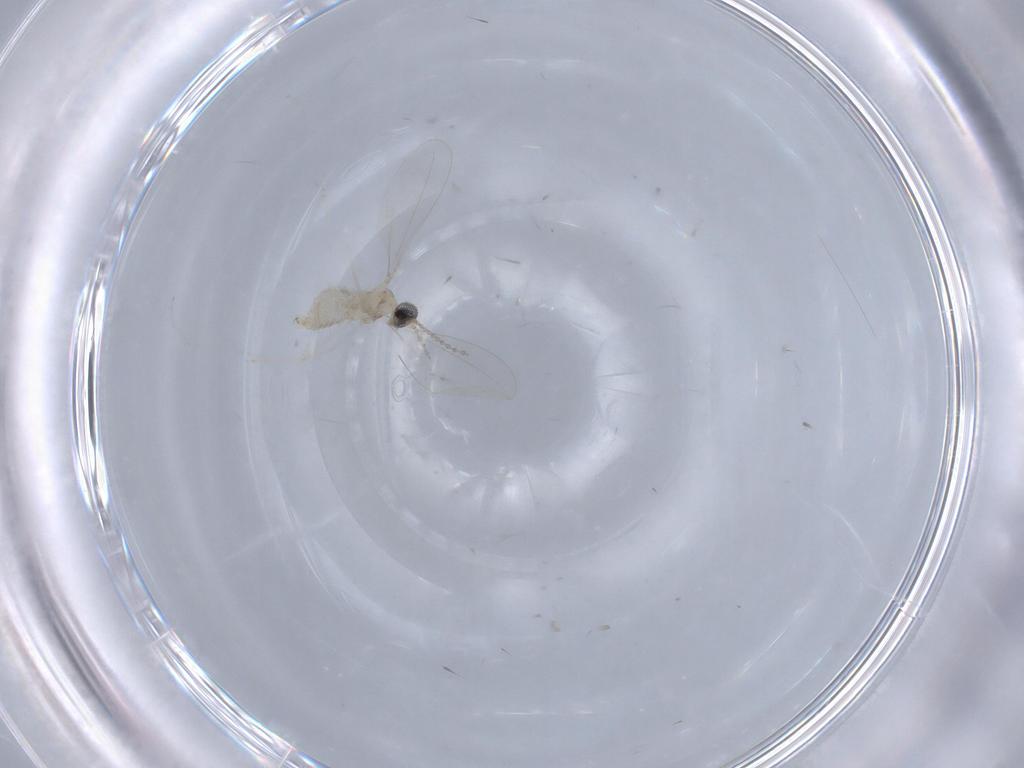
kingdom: Animalia
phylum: Arthropoda
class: Insecta
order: Diptera
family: Cecidomyiidae
